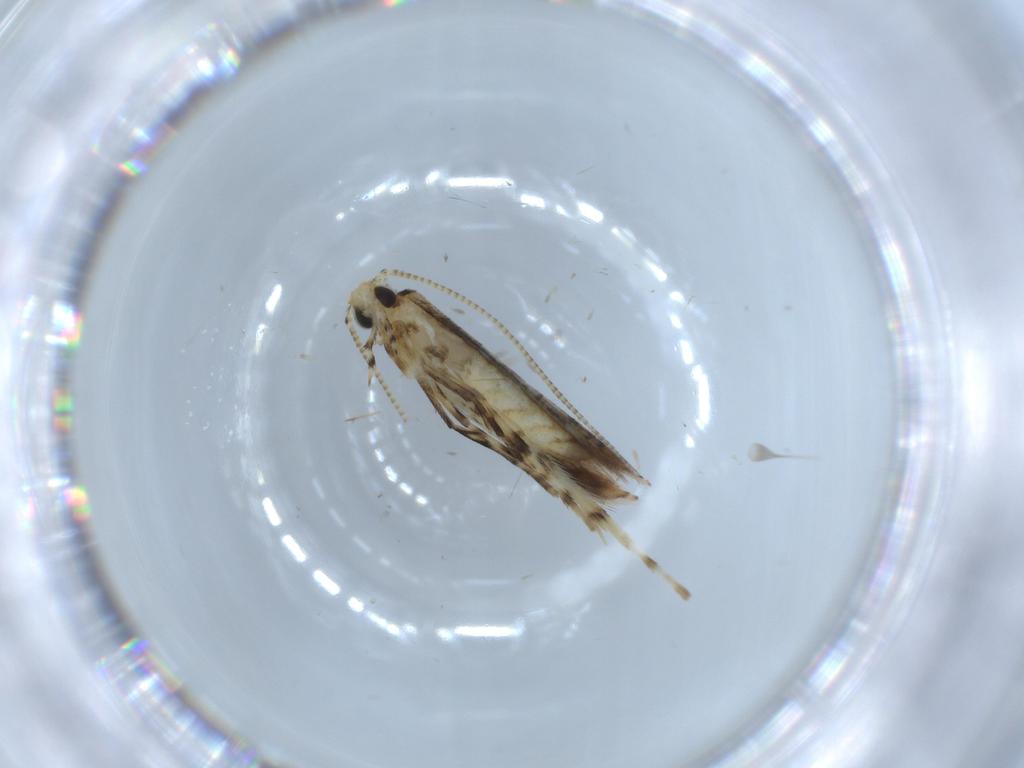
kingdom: Animalia
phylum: Arthropoda
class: Insecta
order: Lepidoptera
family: Gracillariidae
